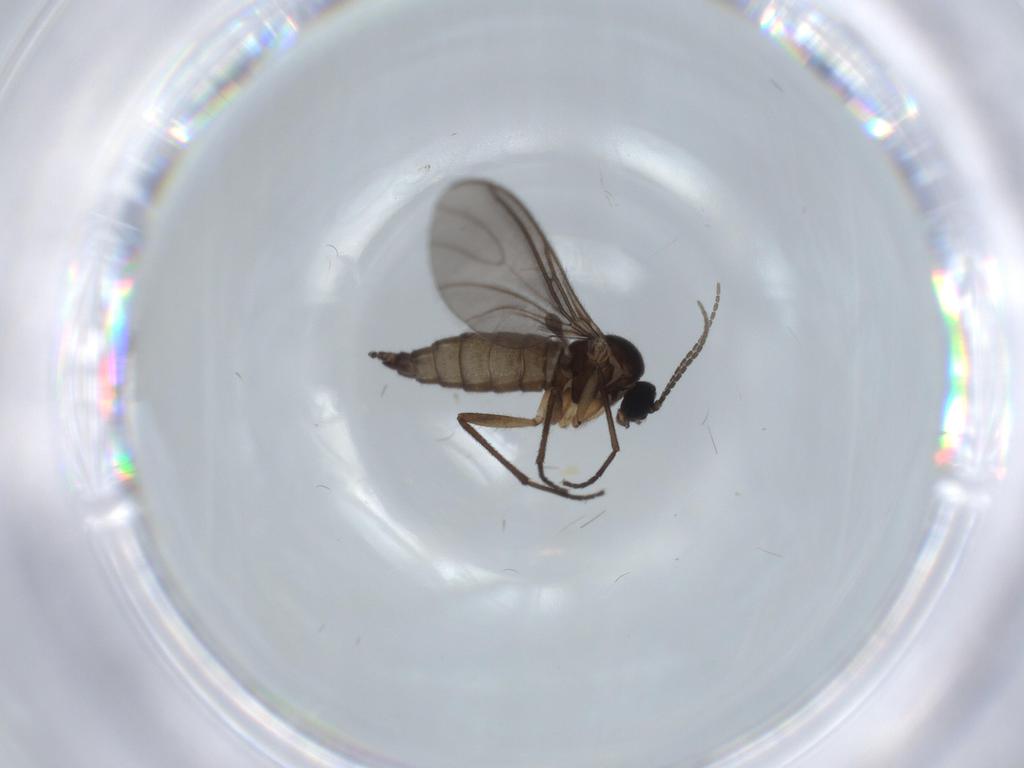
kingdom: Animalia
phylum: Arthropoda
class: Insecta
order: Diptera
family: Sciaridae
